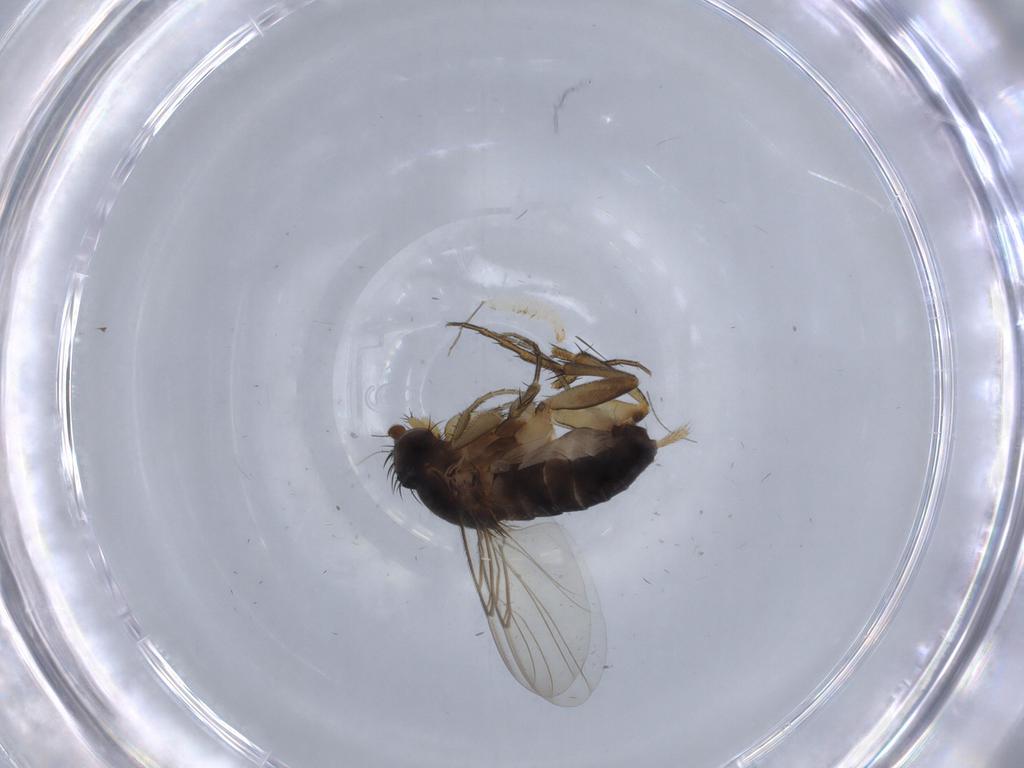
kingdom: Animalia
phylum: Arthropoda
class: Insecta
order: Diptera
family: Phoridae
